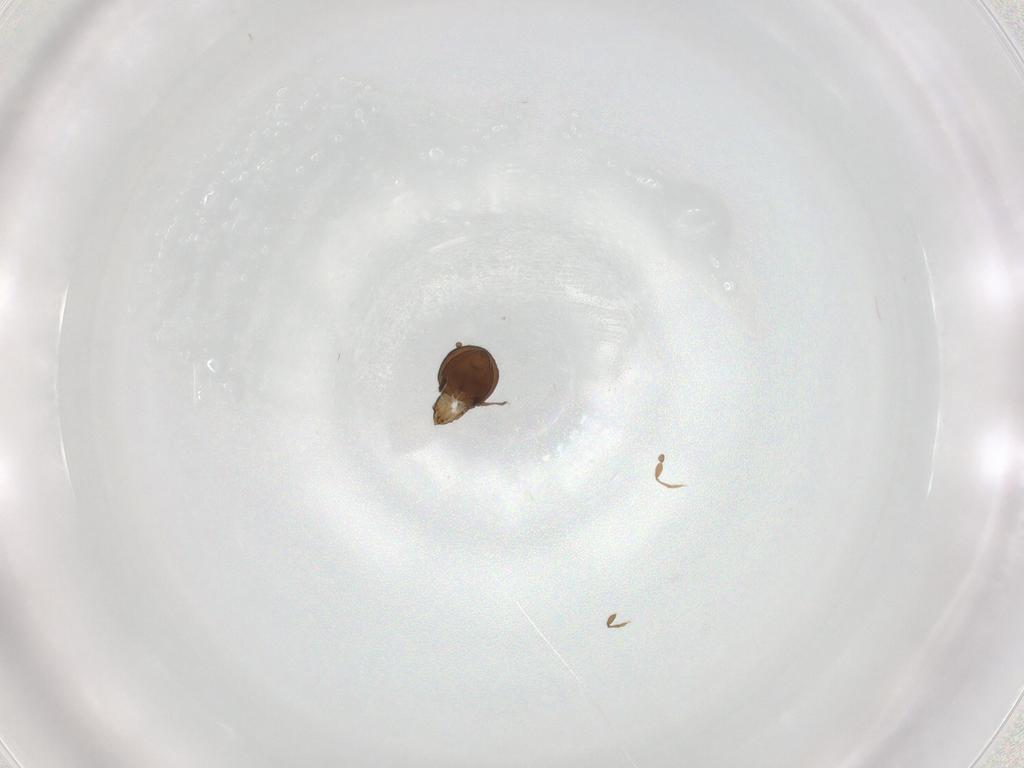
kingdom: Animalia
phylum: Arthropoda
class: Arachnida
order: Sarcoptiformes
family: Oribatulidae
